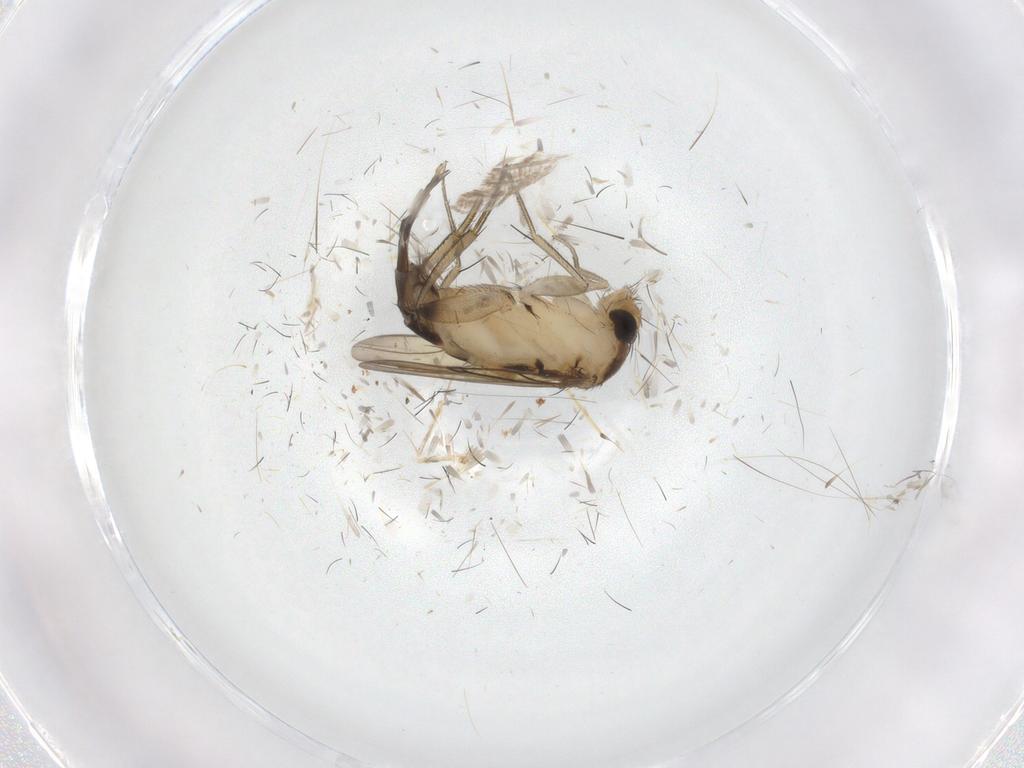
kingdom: Animalia
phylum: Arthropoda
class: Insecta
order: Diptera
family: Phoridae
